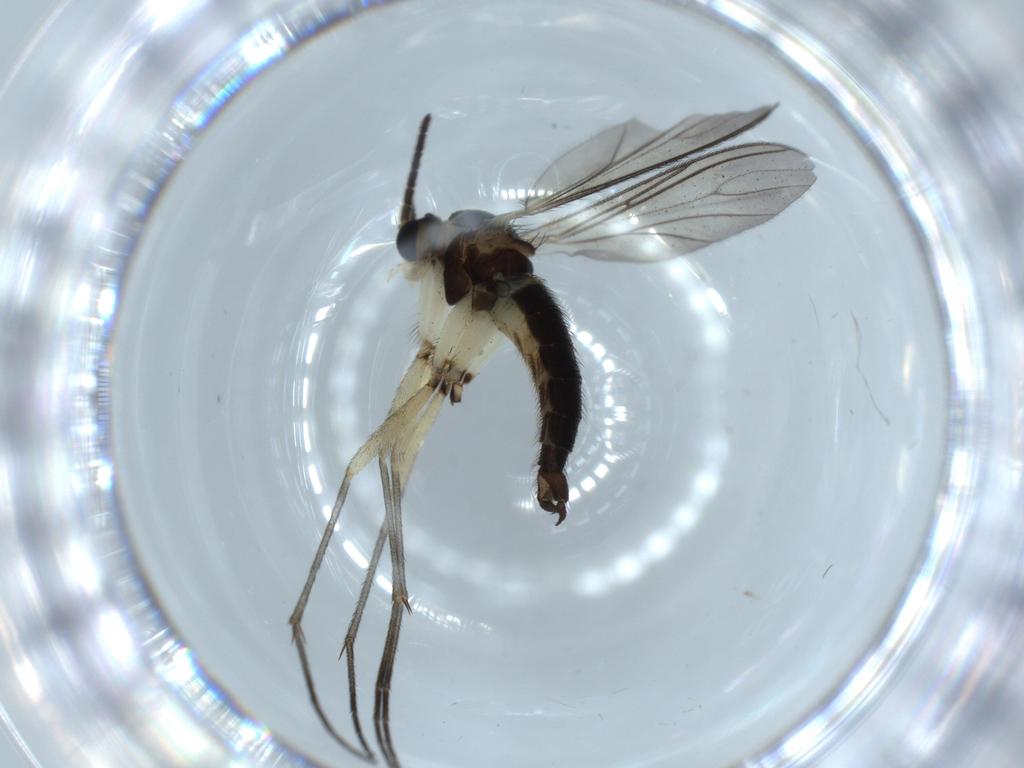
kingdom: Animalia
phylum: Arthropoda
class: Insecta
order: Diptera
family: Sciaridae
